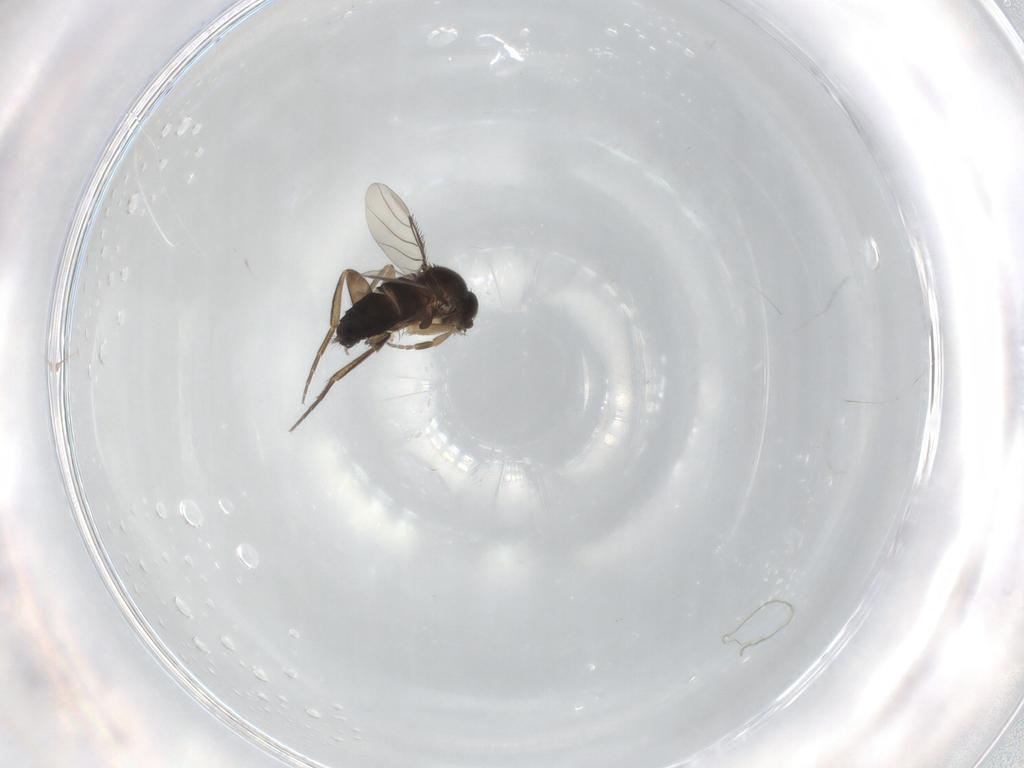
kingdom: Animalia
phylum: Arthropoda
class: Insecta
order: Diptera
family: Phoridae
